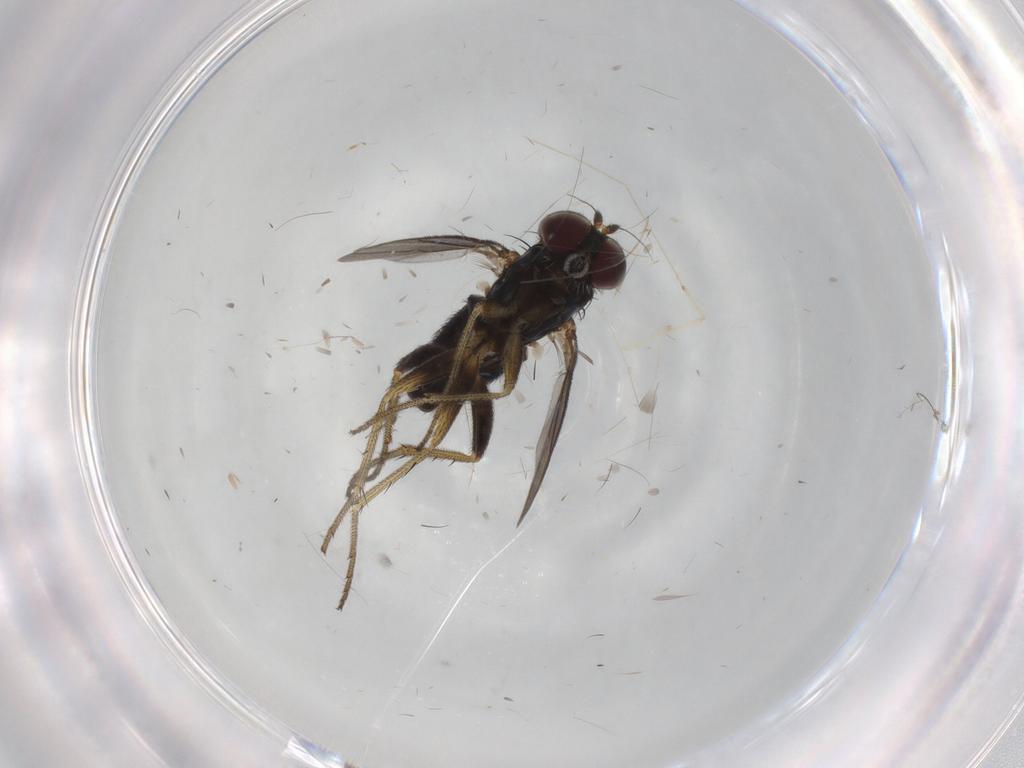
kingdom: Animalia
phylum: Arthropoda
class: Insecta
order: Diptera
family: Chironomidae
